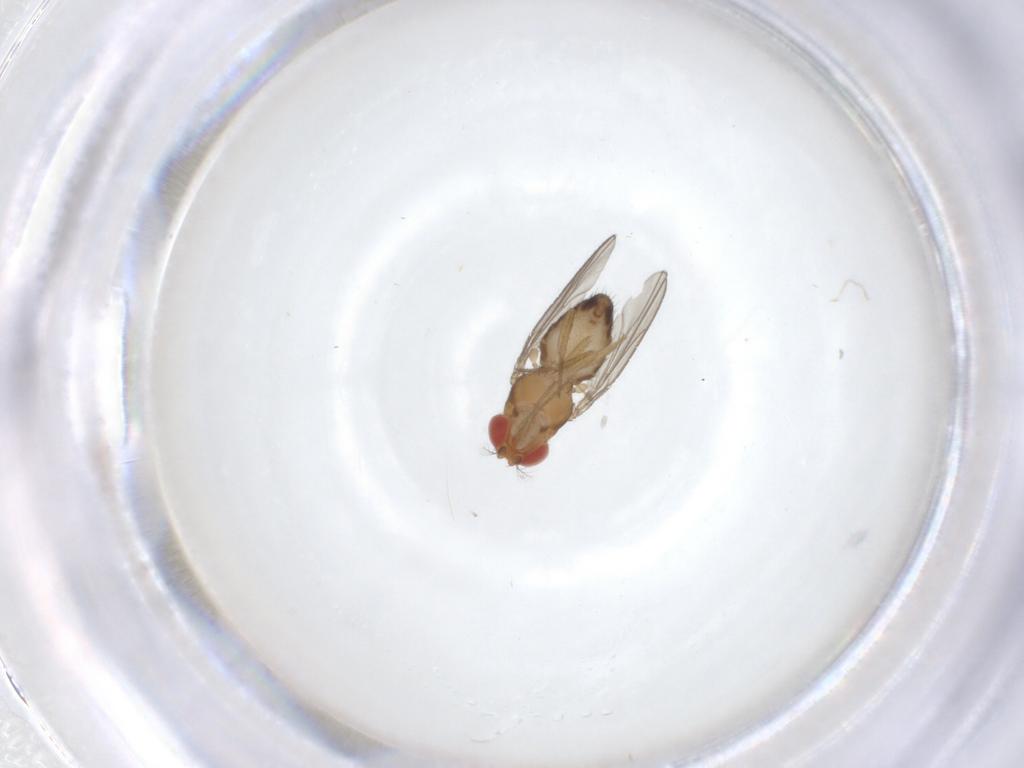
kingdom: Animalia
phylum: Arthropoda
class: Insecta
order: Diptera
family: Drosophilidae
